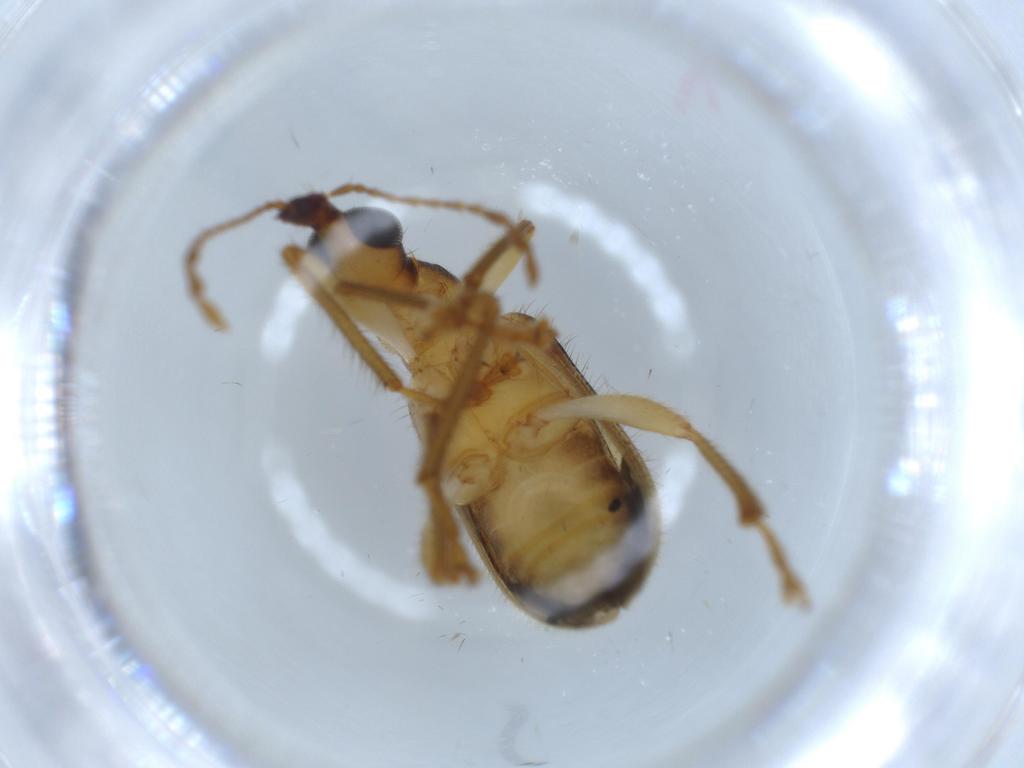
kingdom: Animalia
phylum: Arthropoda
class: Insecta
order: Coleoptera
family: Attelabidae
